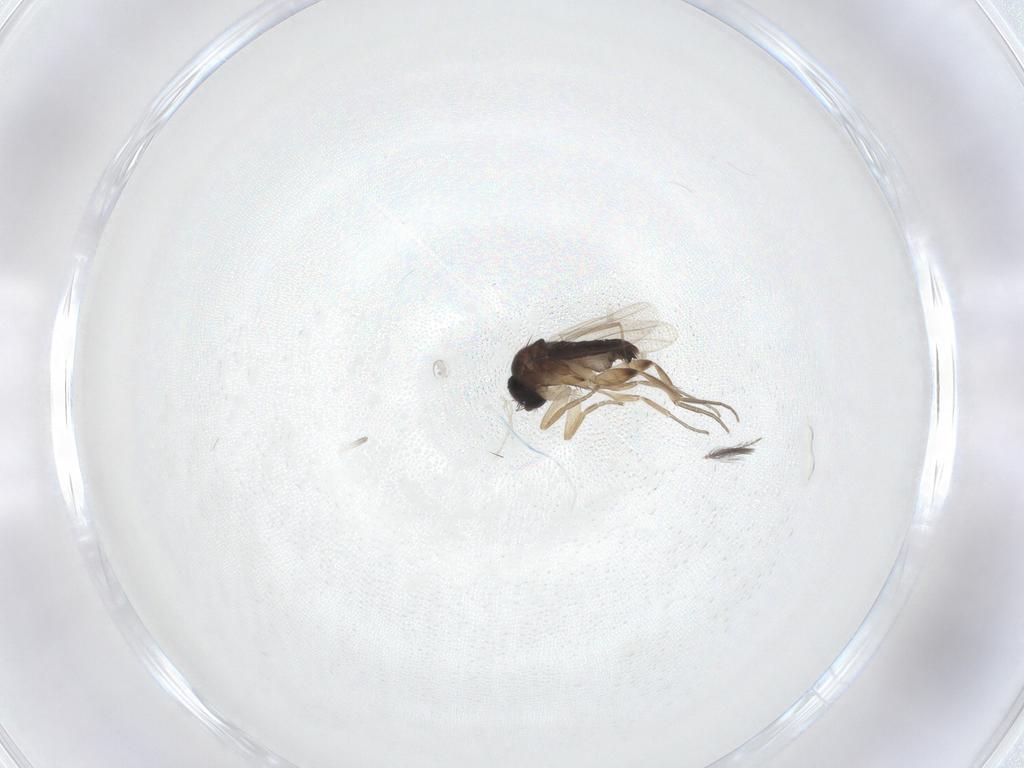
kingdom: Animalia
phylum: Arthropoda
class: Insecta
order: Diptera
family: Phoridae
